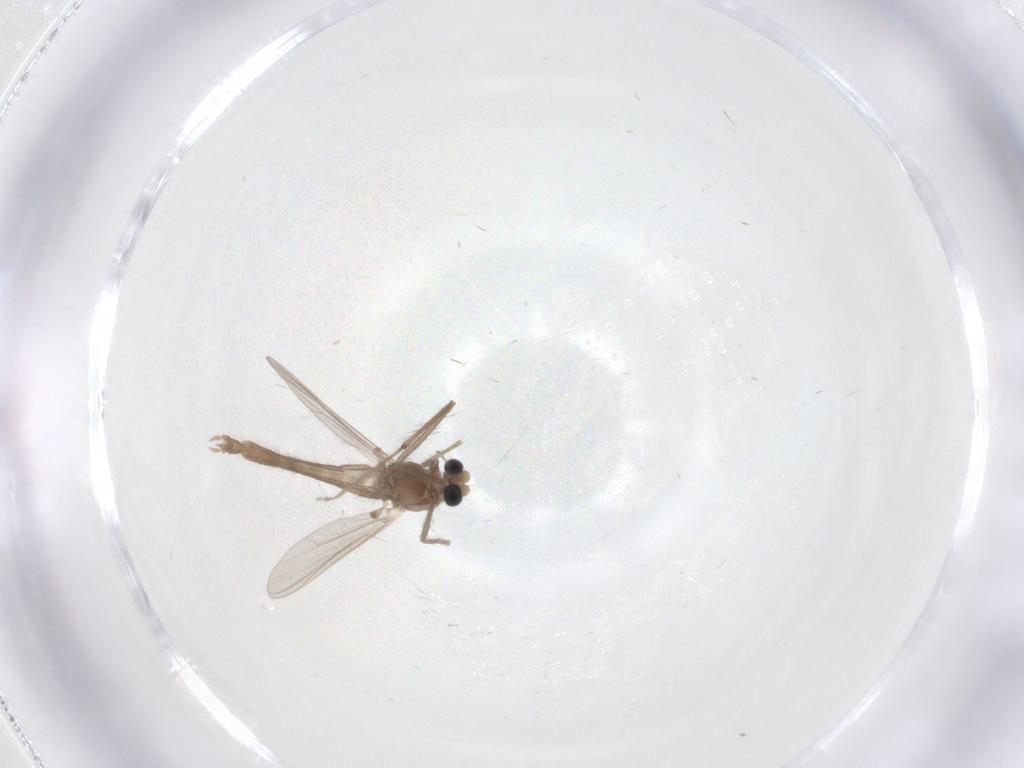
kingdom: Animalia
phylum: Arthropoda
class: Insecta
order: Diptera
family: Chironomidae
